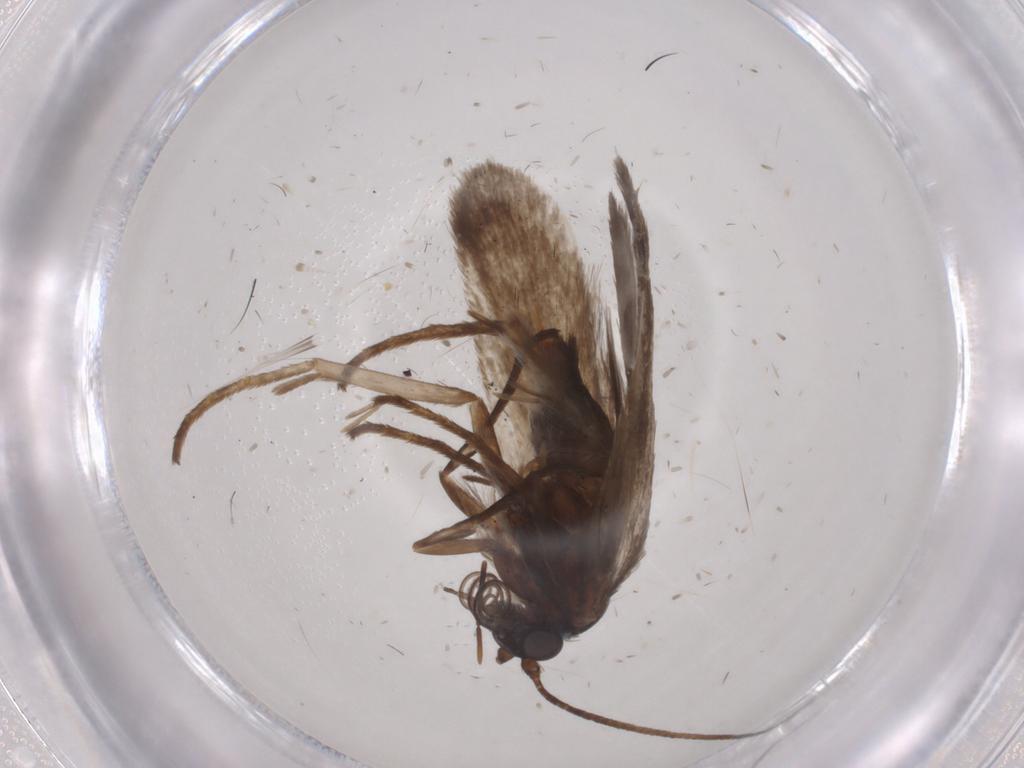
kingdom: Animalia
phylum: Arthropoda
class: Insecta
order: Lepidoptera
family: Adelidae
